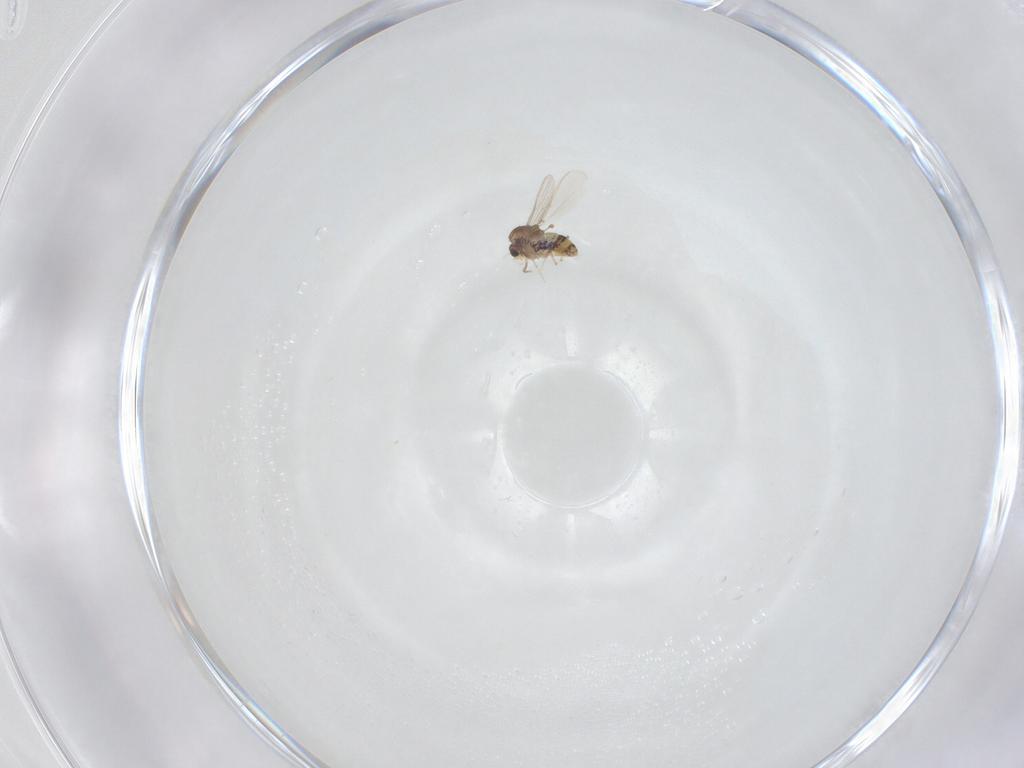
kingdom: Animalia
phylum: Arthropoda
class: Insecta
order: Diptera
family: Chironomidae
